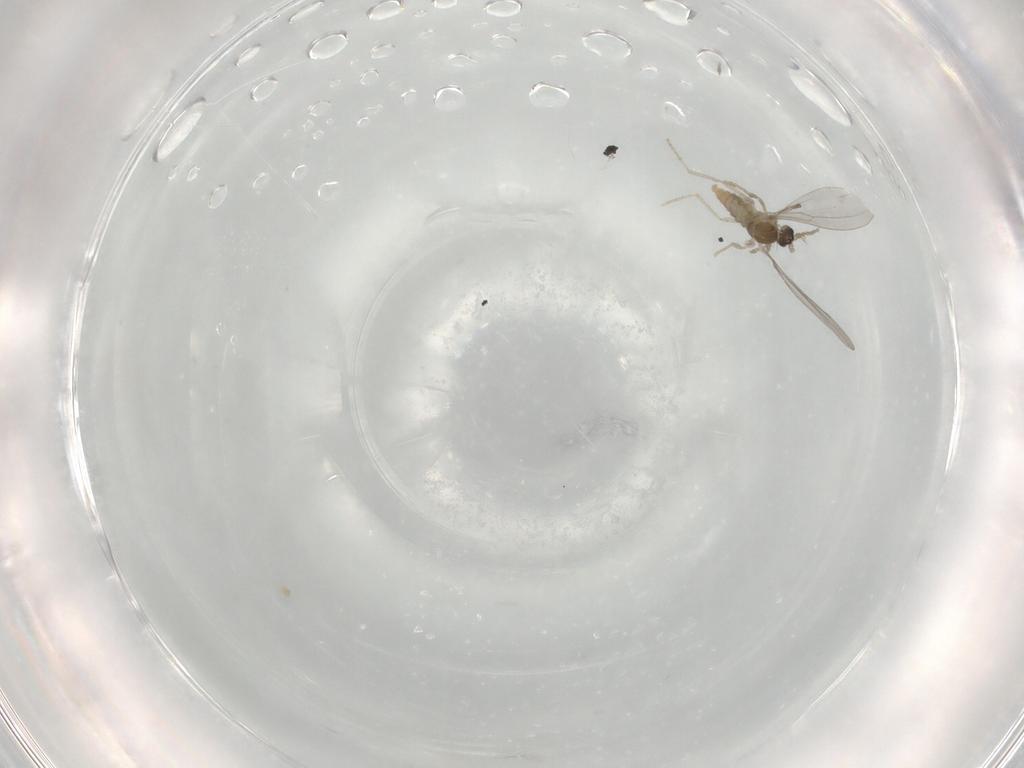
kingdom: Animalia
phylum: Arthropoda
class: Insecta
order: Diptera
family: Cecidomyiidae
